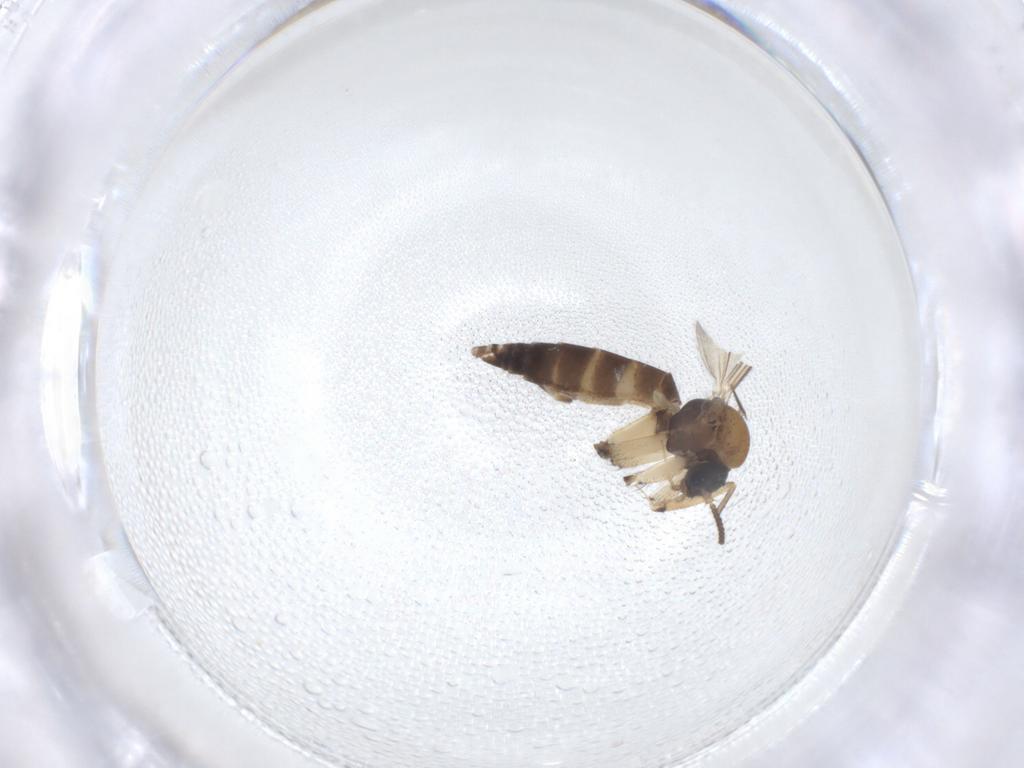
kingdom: Animalia
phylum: Arthropoda
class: Insecta
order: Diptera
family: Mycetophilidae
